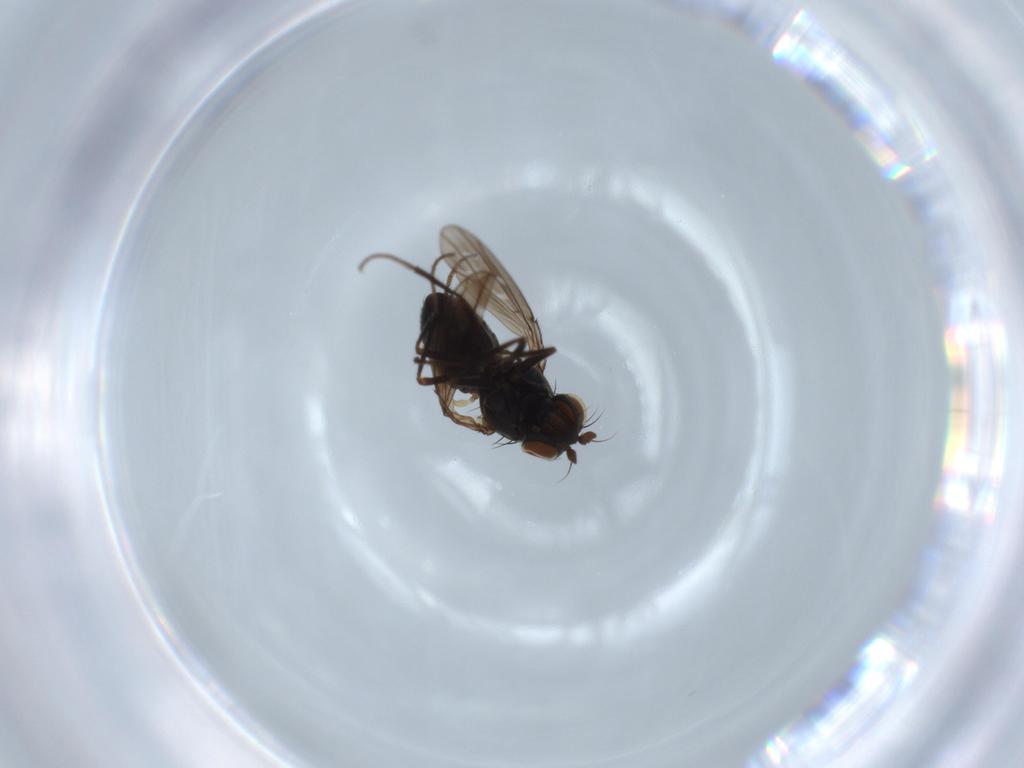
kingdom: Animalia
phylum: Arthropoda
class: Insecta
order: Diptera
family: Ephydridae
